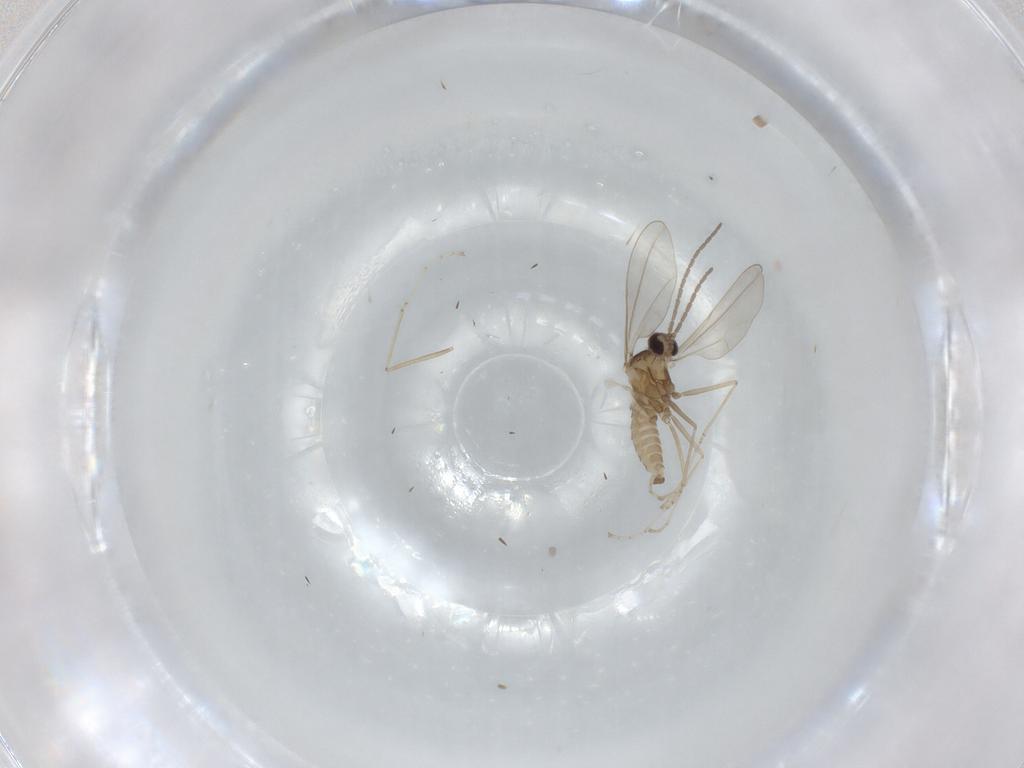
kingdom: Animalia
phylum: Arthropoda
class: Insecta
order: Diptera
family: Cecidomyiidae
